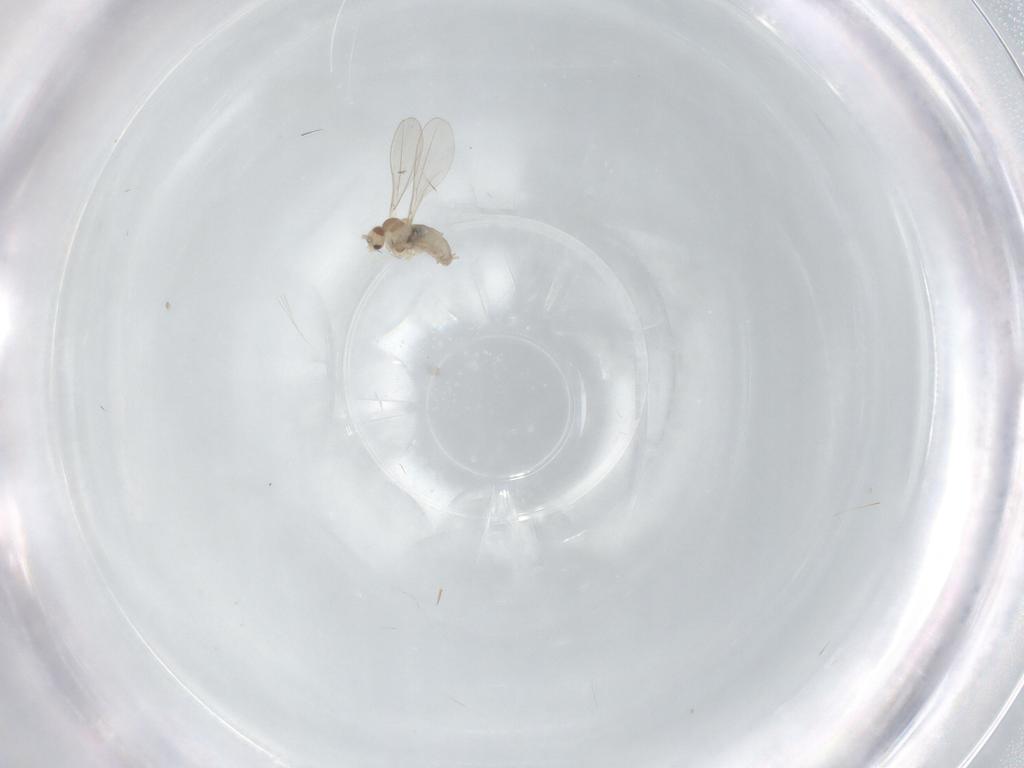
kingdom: Animalia
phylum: Arthropoda
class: Insecta
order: Diptera
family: Cecidomyiidae
